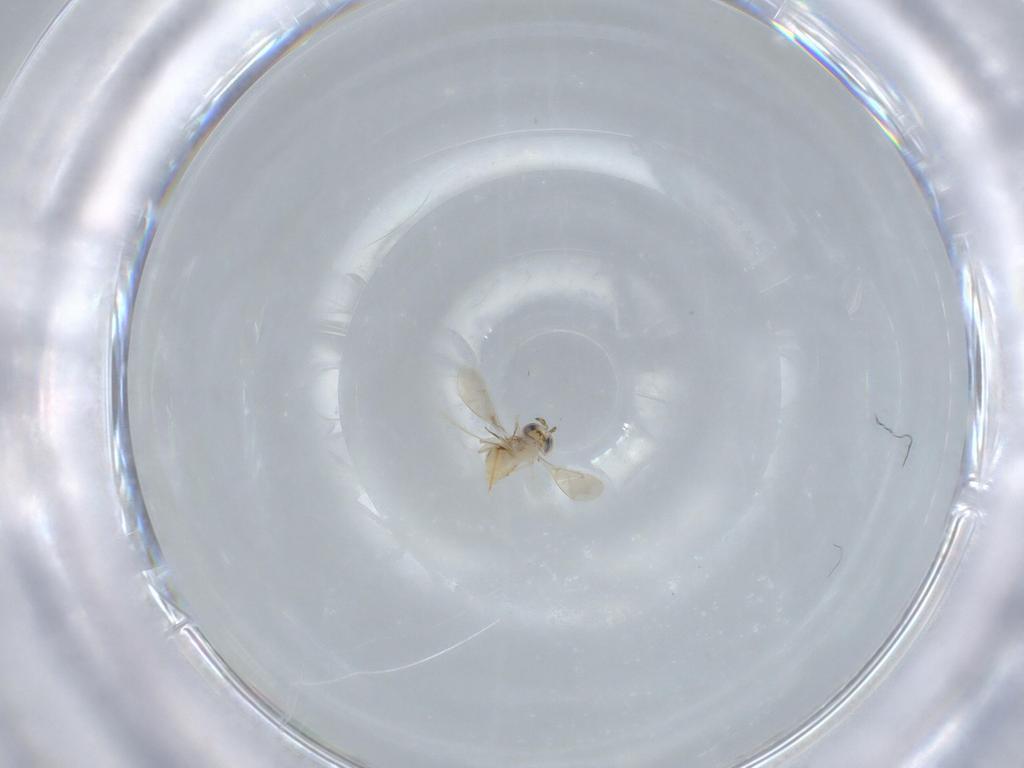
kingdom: Animalia
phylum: Arthropoda
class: Insecta
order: Hymenoptera
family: Aphelinidae
